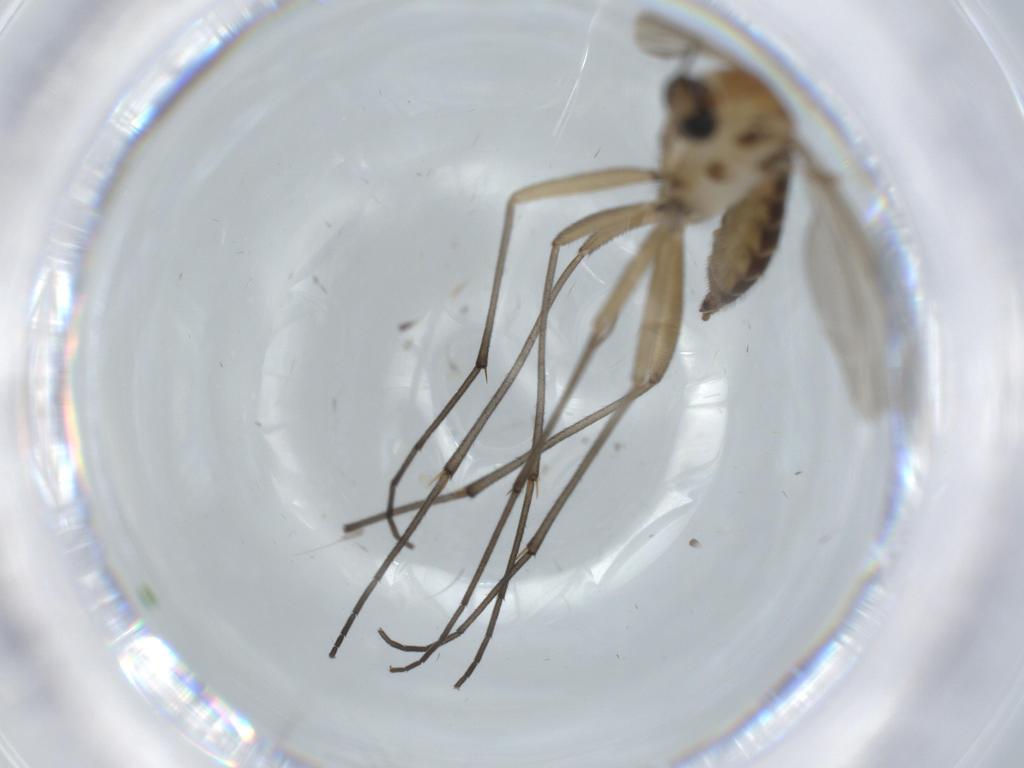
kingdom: Animalia
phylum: Arthropoda
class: Insecta
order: Diptera
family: Sciaridae
